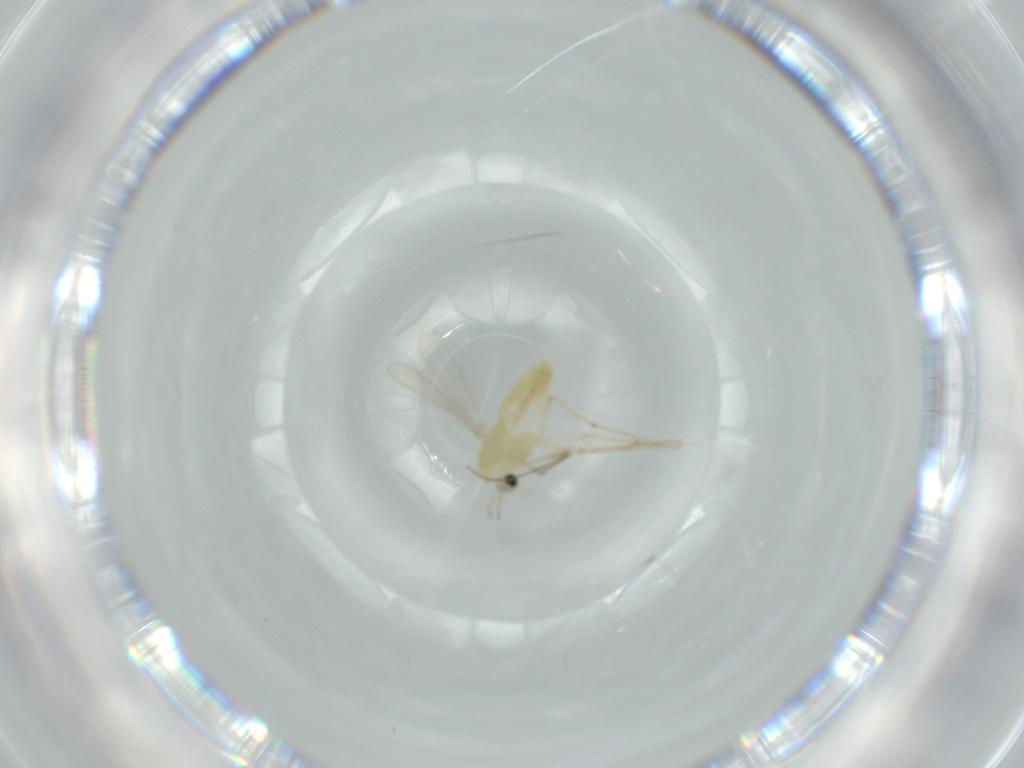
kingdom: Animalia
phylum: Arthropoda
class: Insecta
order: Diptera
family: Chironomidae
